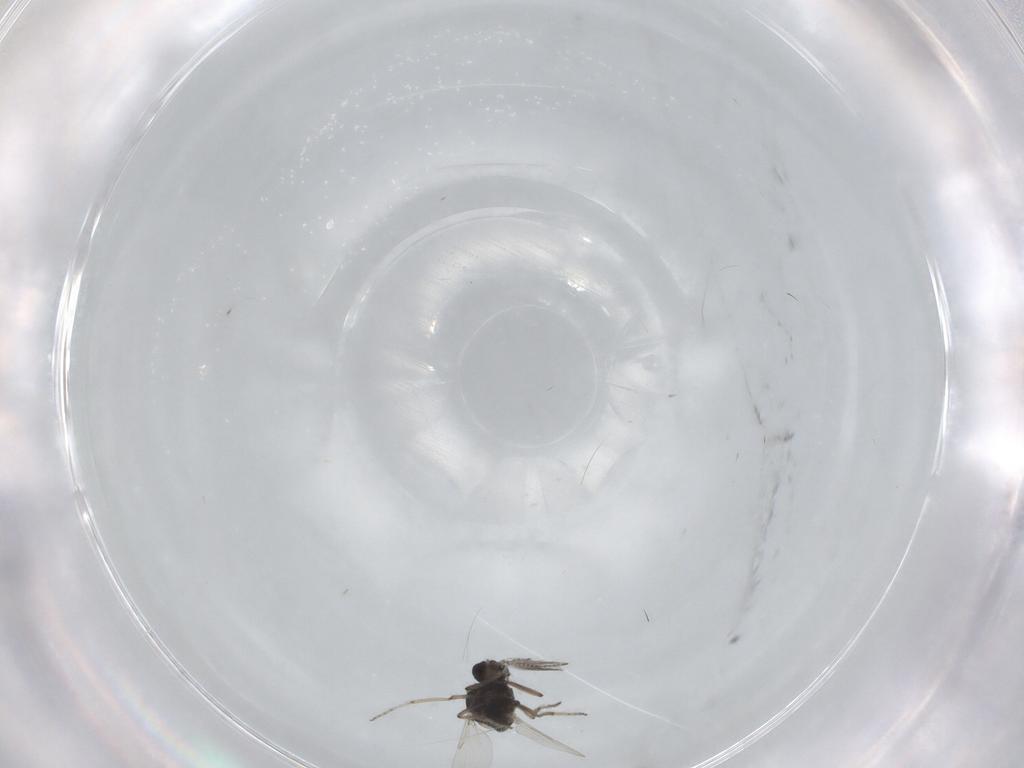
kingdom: Animalia
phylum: Arthropoda
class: Insecta
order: Diptera
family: Ceratopogonidae
